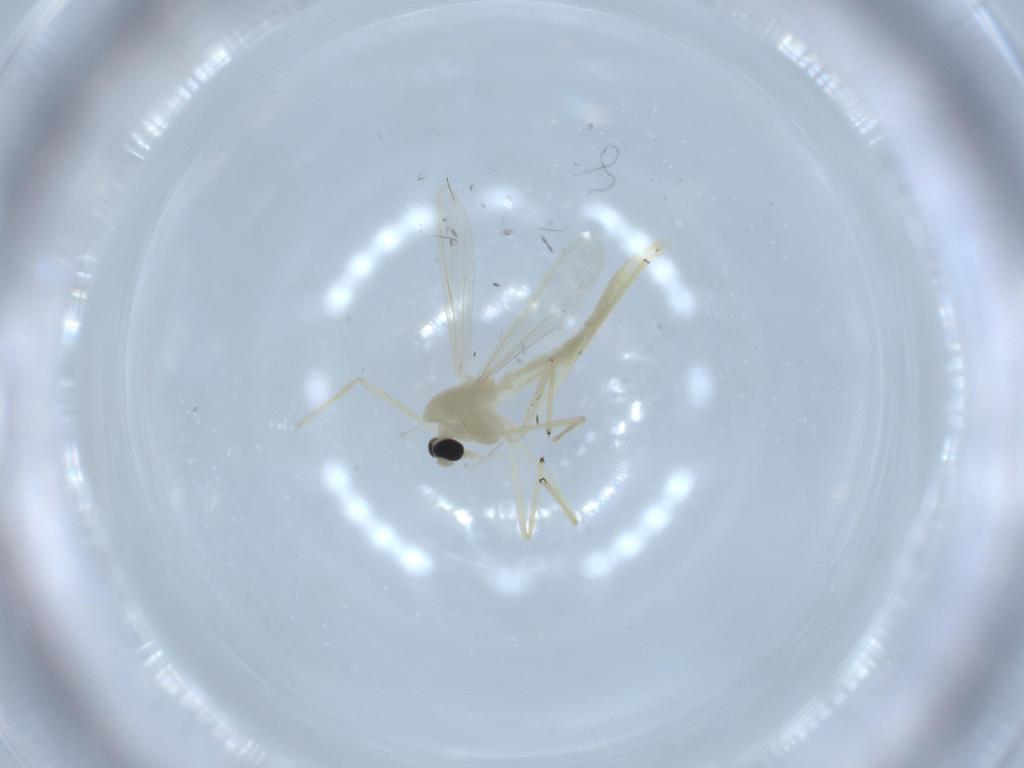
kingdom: Animalia
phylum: Arthropoda
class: Insecta
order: Diptera
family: Chironomidae
